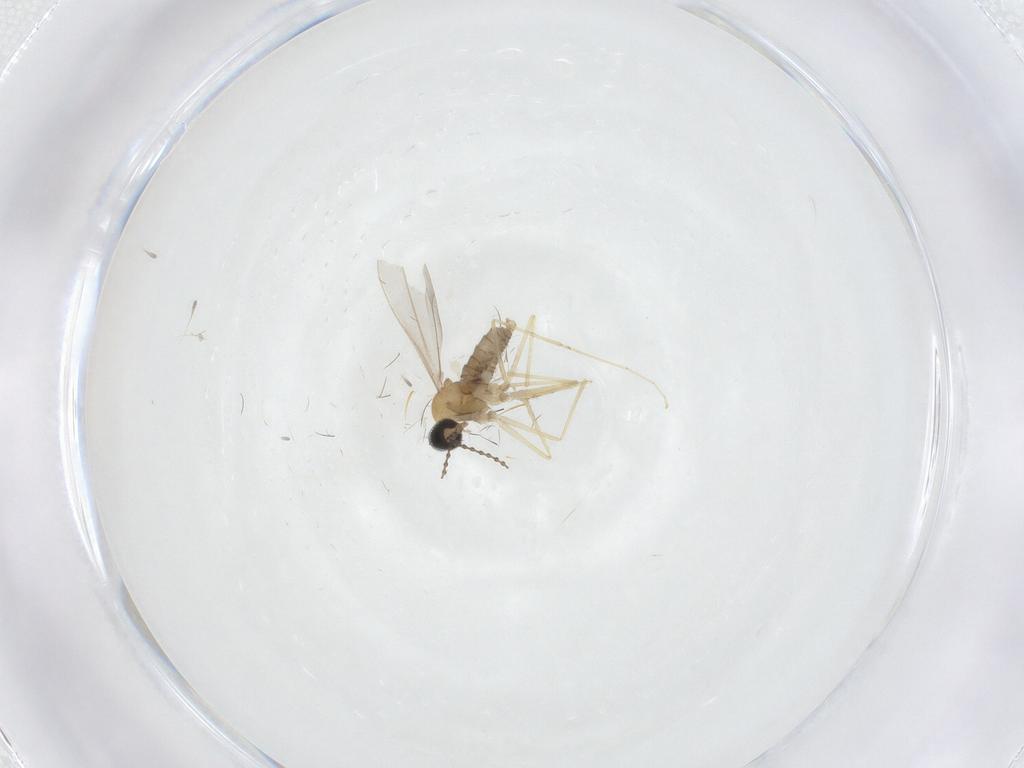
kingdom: Animalia
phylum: Arthropoda
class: Insecta
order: Diptera
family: Cecidomyiidae
